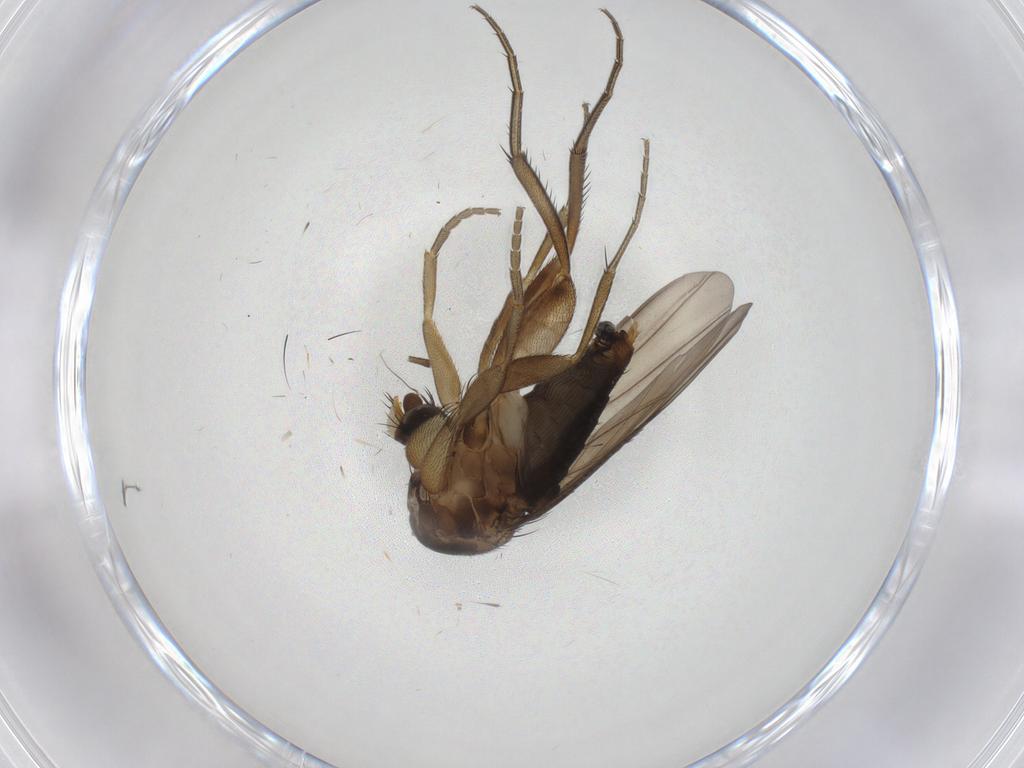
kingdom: Animalia
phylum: Arthropoda
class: Insecta
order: Diptera
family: Phoridae
